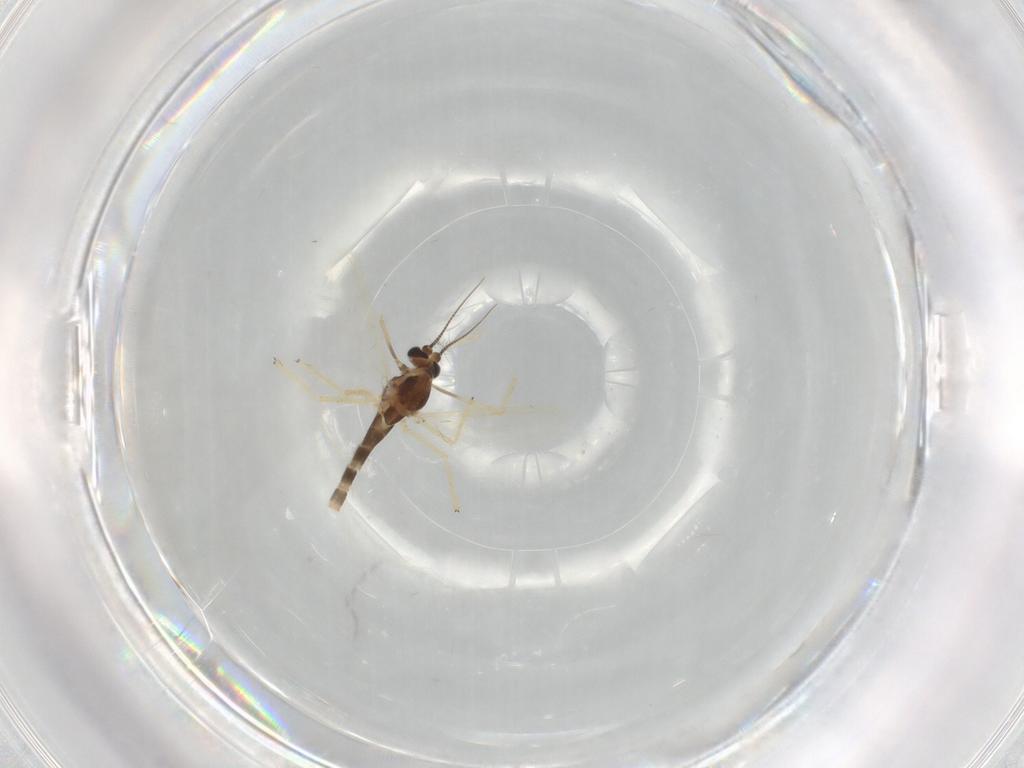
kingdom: Animalia
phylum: Arthropoda
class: Insecta
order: Diptera
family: Chironomidae
